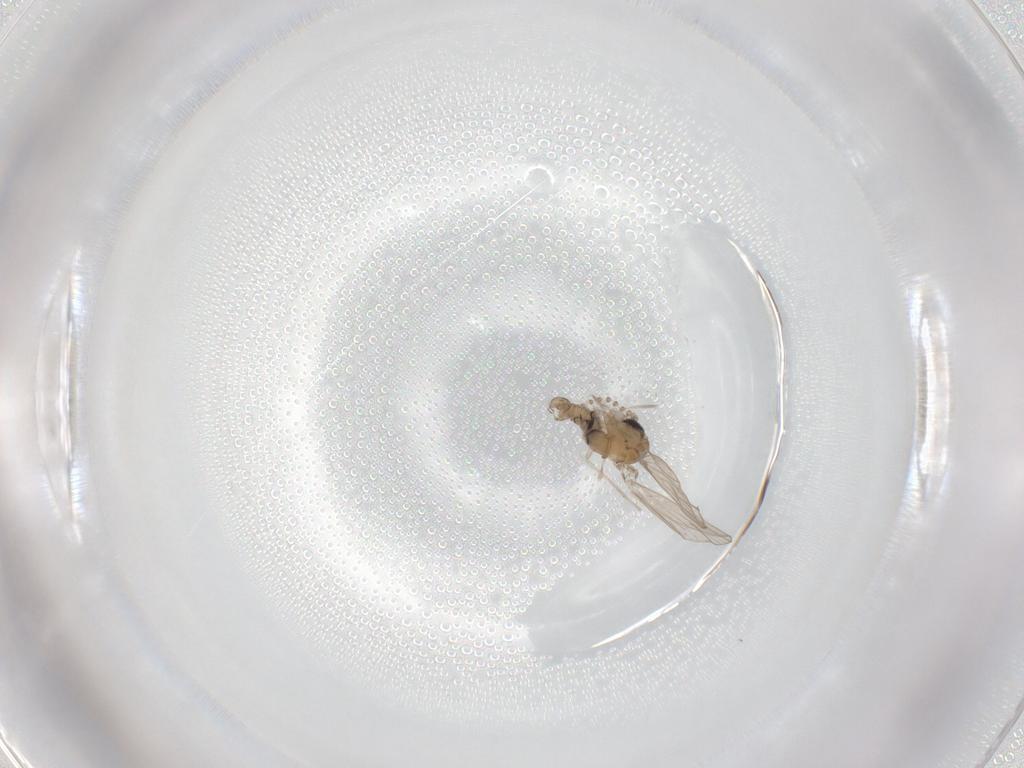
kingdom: Animalia
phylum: Arthropoda
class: Insecta
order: Diptera
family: Psychodidae
